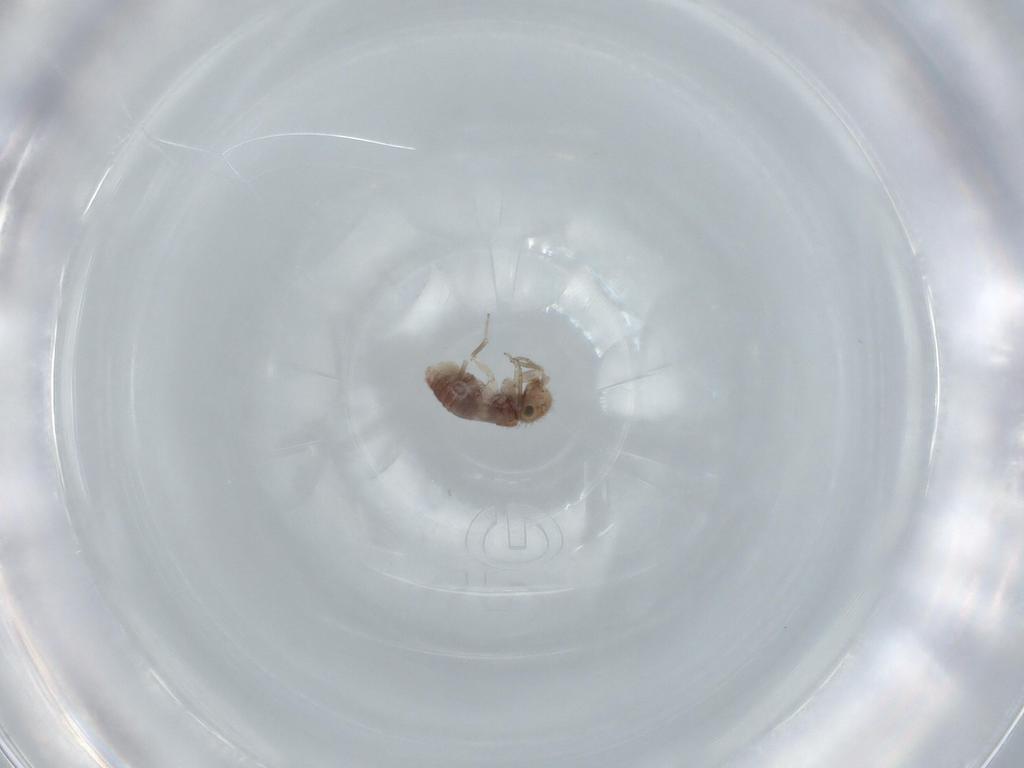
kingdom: Animalia
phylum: Arthropoda
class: Insecta
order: Psocodea
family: Ectopsocidae
